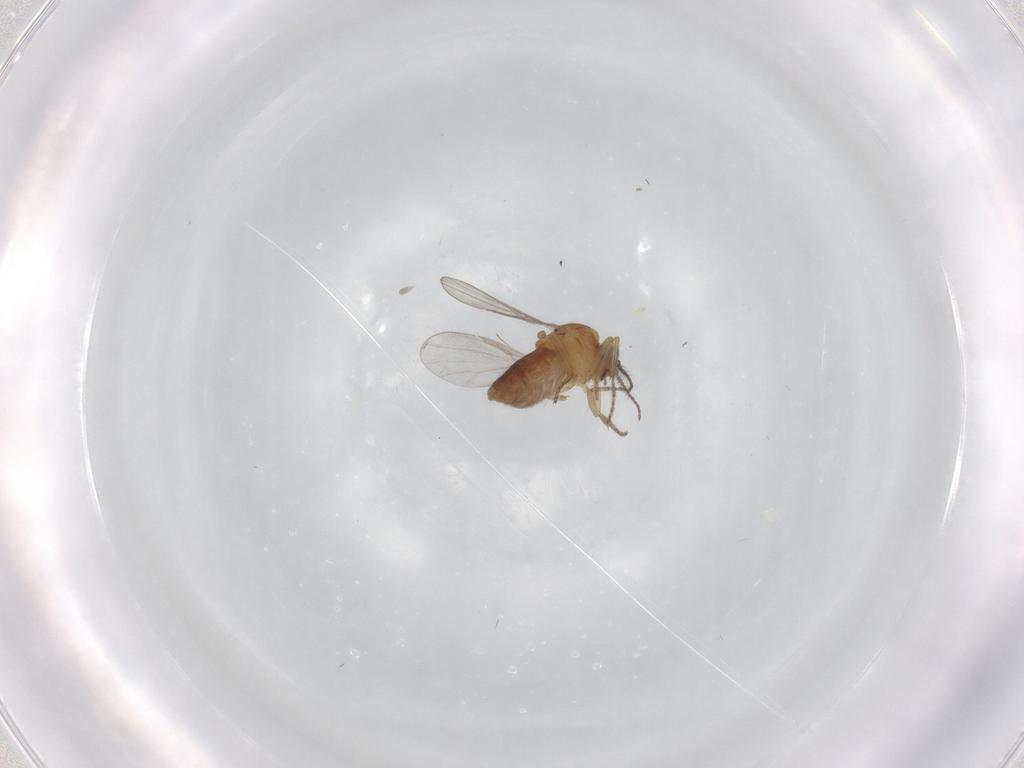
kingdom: Animalia
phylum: Arthropoda
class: Insecta
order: Diptera
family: Ceratopogonidae
